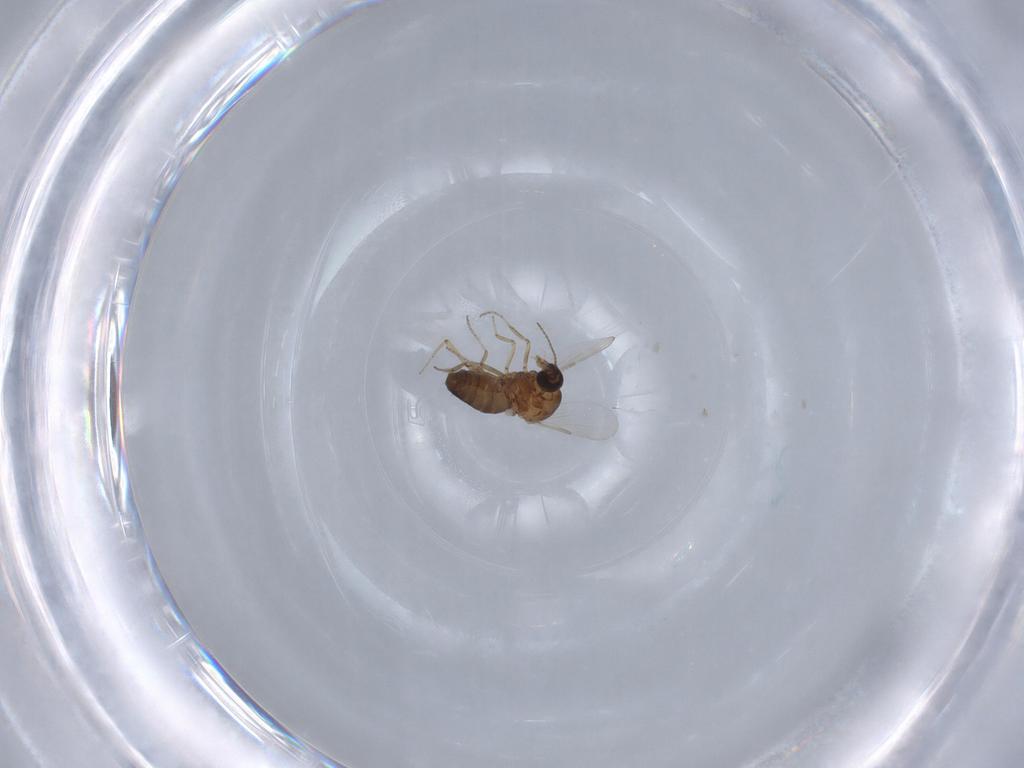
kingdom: Animalia
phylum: Arthropoda
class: Insecta
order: Diptera
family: Ceratopogonidae
